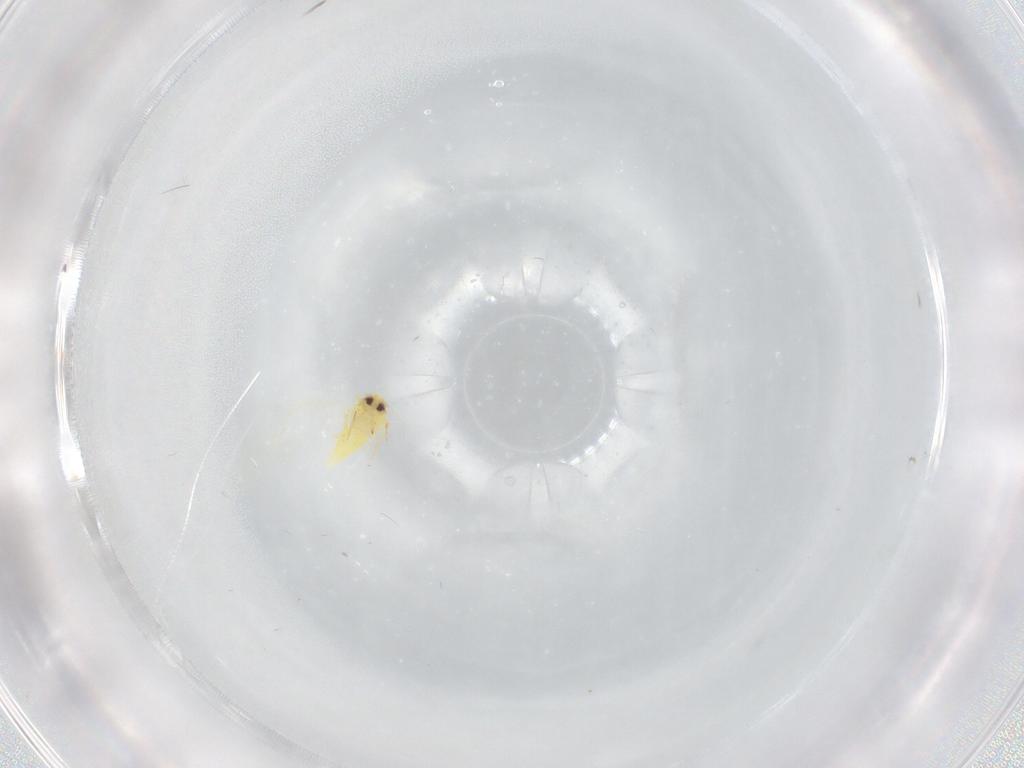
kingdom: Animalia
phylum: Arthropoda
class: Insecta
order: Hemiptera
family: Aleyrodidae
